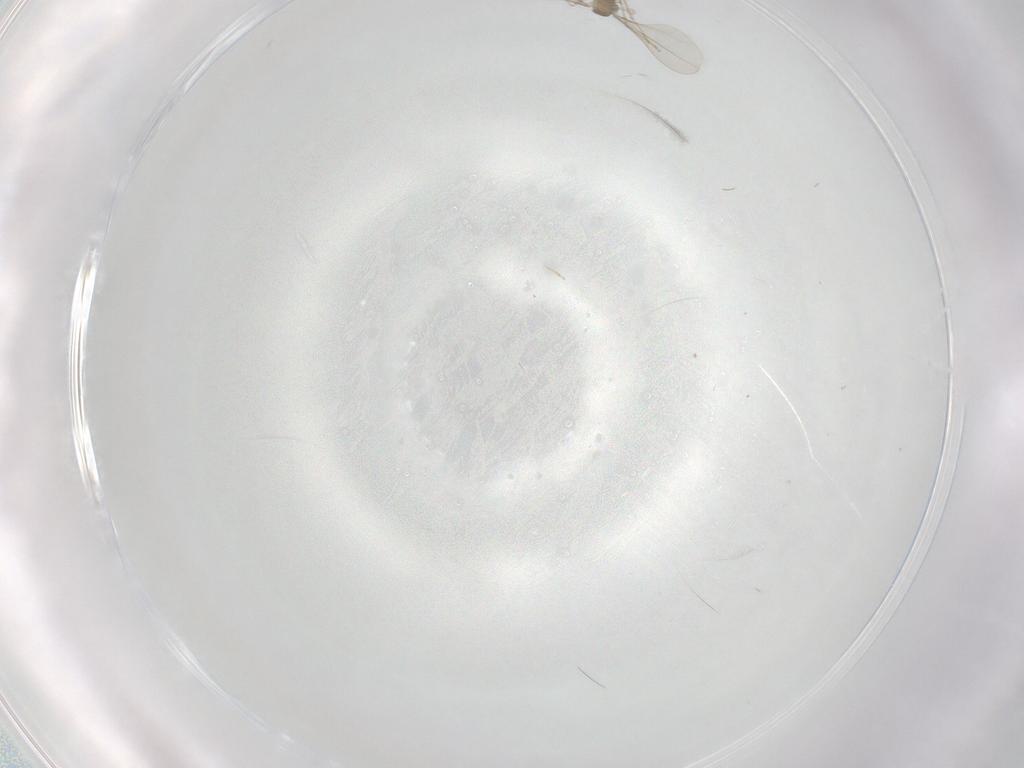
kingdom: Animalia
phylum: Arthropoda
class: Insecta
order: Diptera
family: Cecidomyiidae
